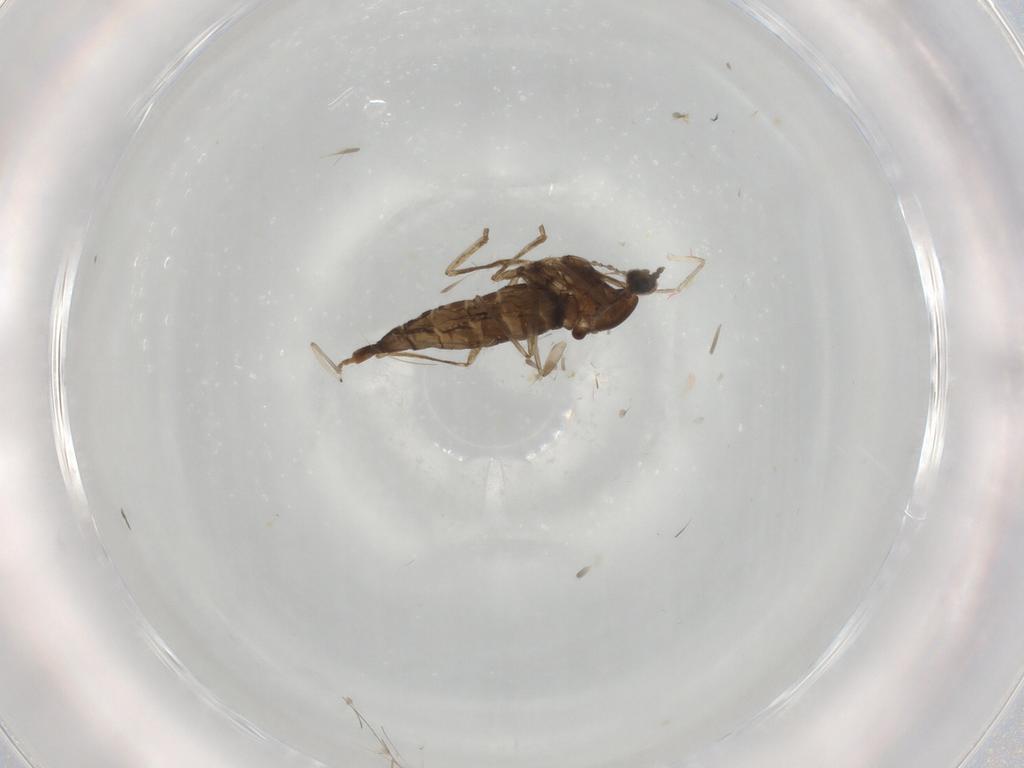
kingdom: Animalia
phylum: Arthropoda
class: Insecta
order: Diptera
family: Cecidomyiidae
